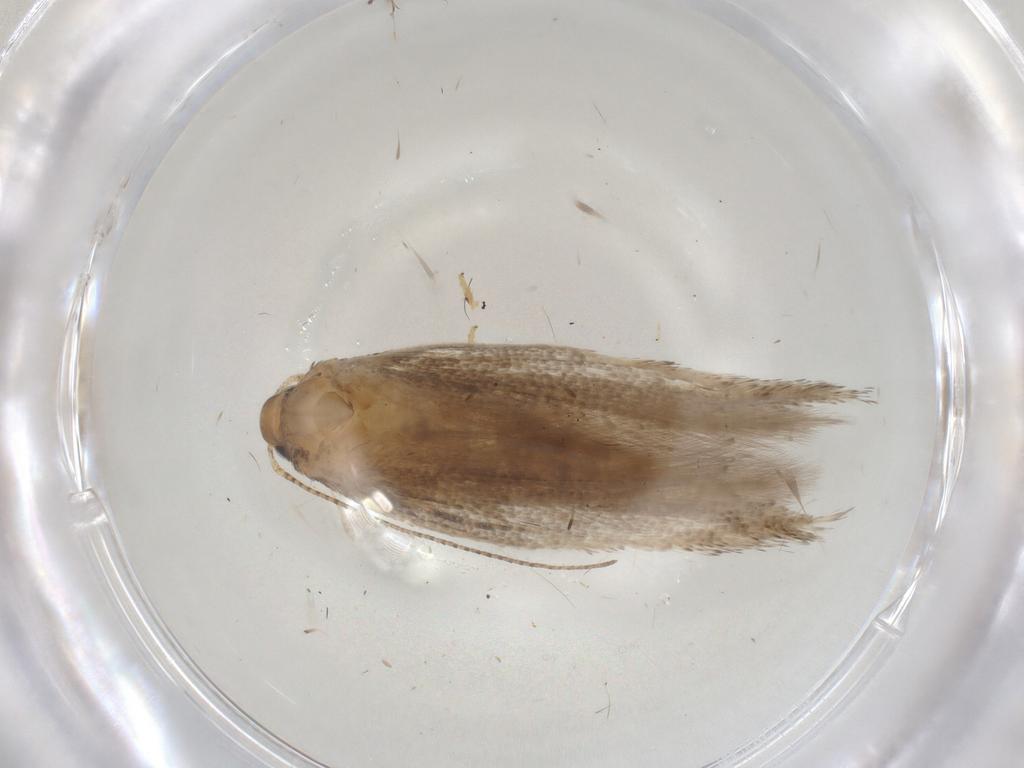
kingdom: Animalia
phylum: Arthropoda
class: Insecta
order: Lepidoptera
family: Gelechiidae
